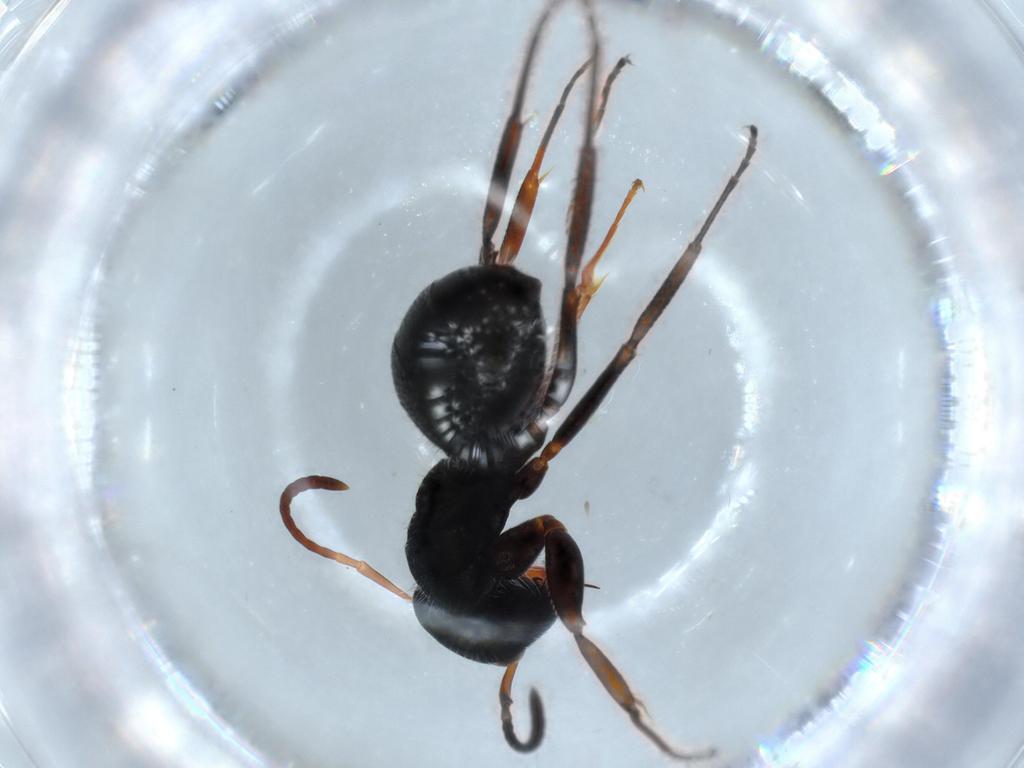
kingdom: Animalia
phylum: Arthropoda
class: Insecta
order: Hymenoptera
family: Formicidae
